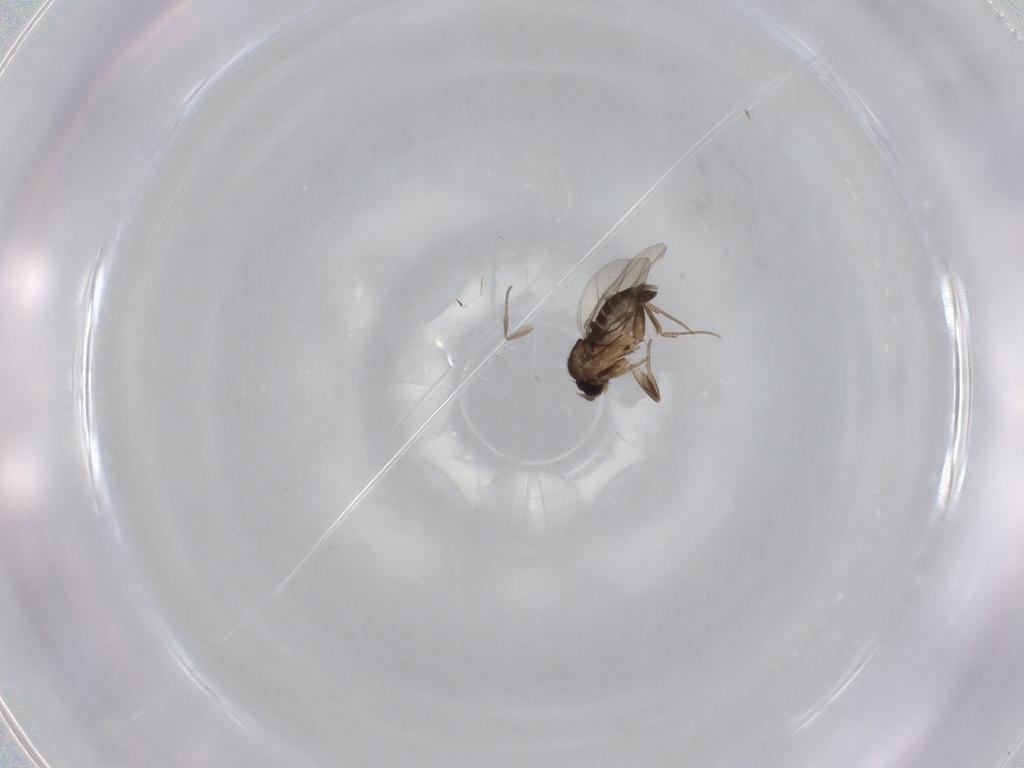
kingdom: Animalia
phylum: Arthropoda
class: Insecta
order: Diptera
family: Phoridae
